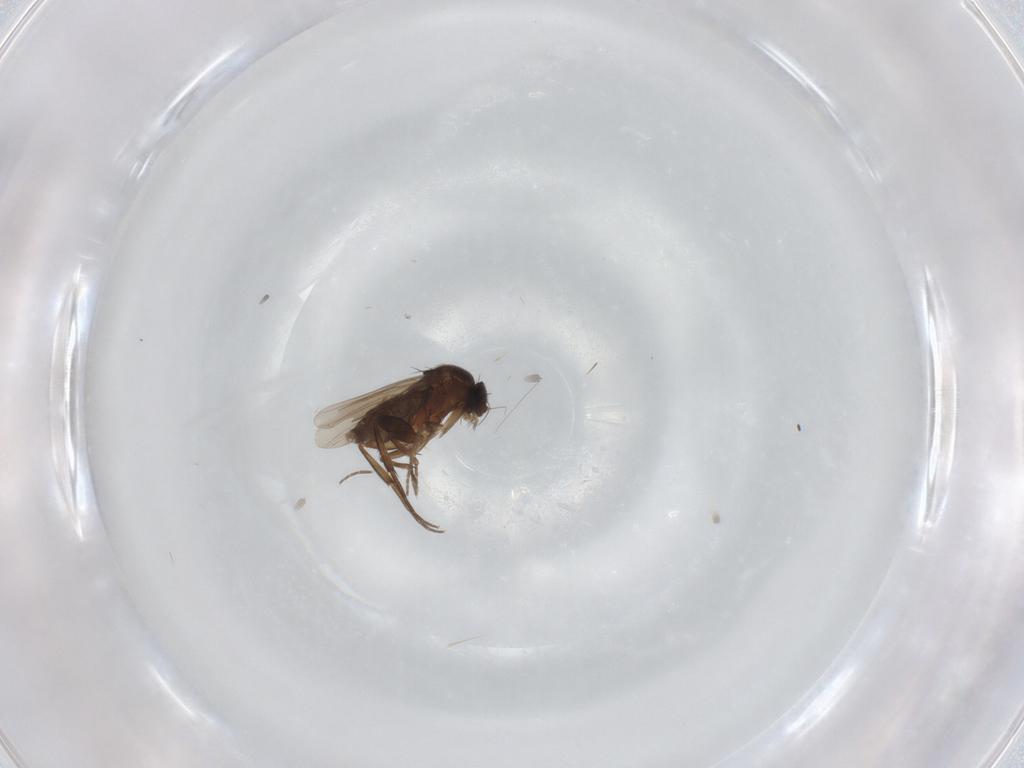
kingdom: Animalia
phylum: Arthropoda
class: Insecta
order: Diptera
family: Phoridae
